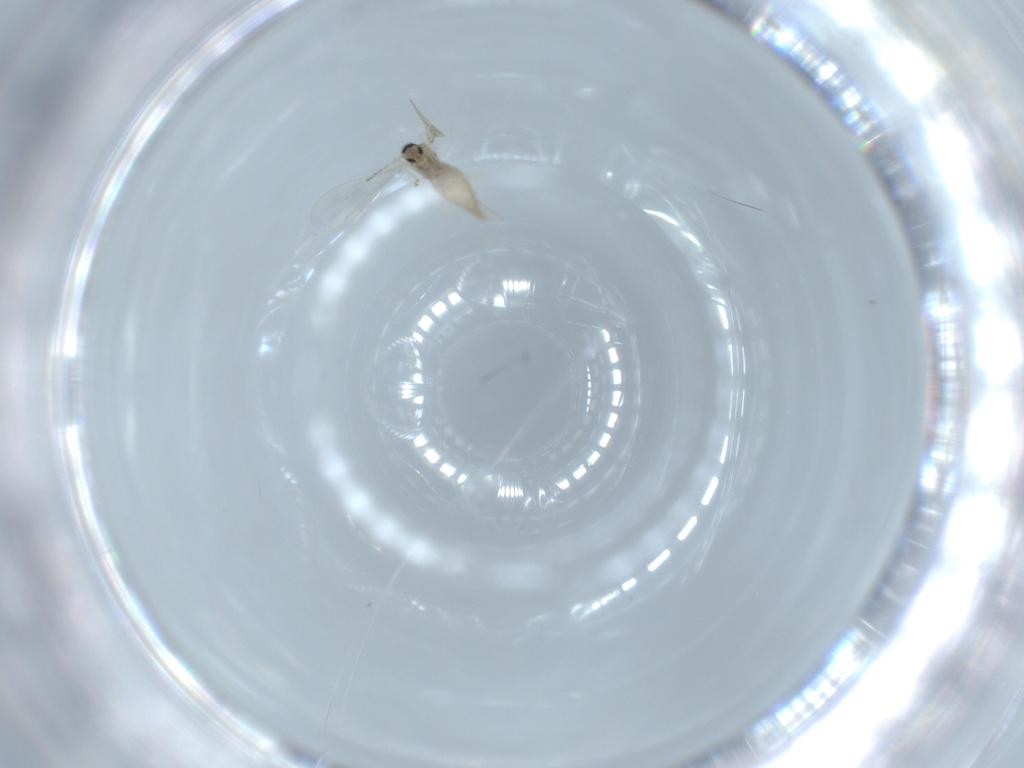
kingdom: Animalia
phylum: Arthropoda
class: Insecta
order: Diptera
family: Cecidomyiidae
